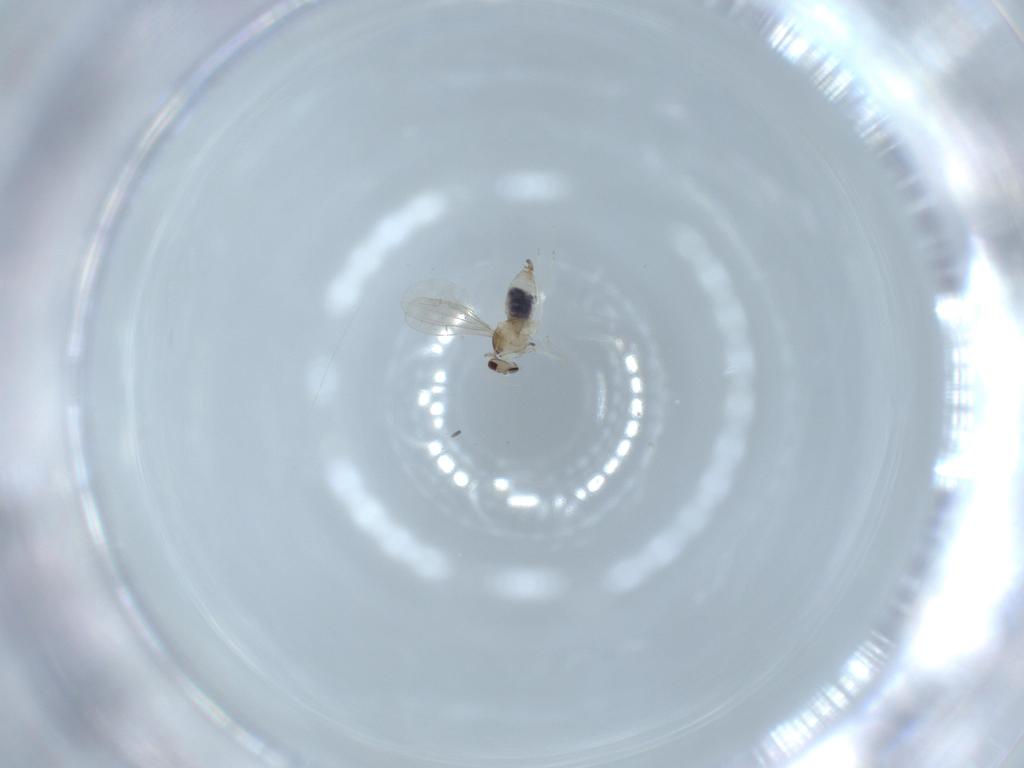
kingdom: Animalia
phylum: Arthropoda
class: Insecta
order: Diptera
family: Cecidomyiidae
